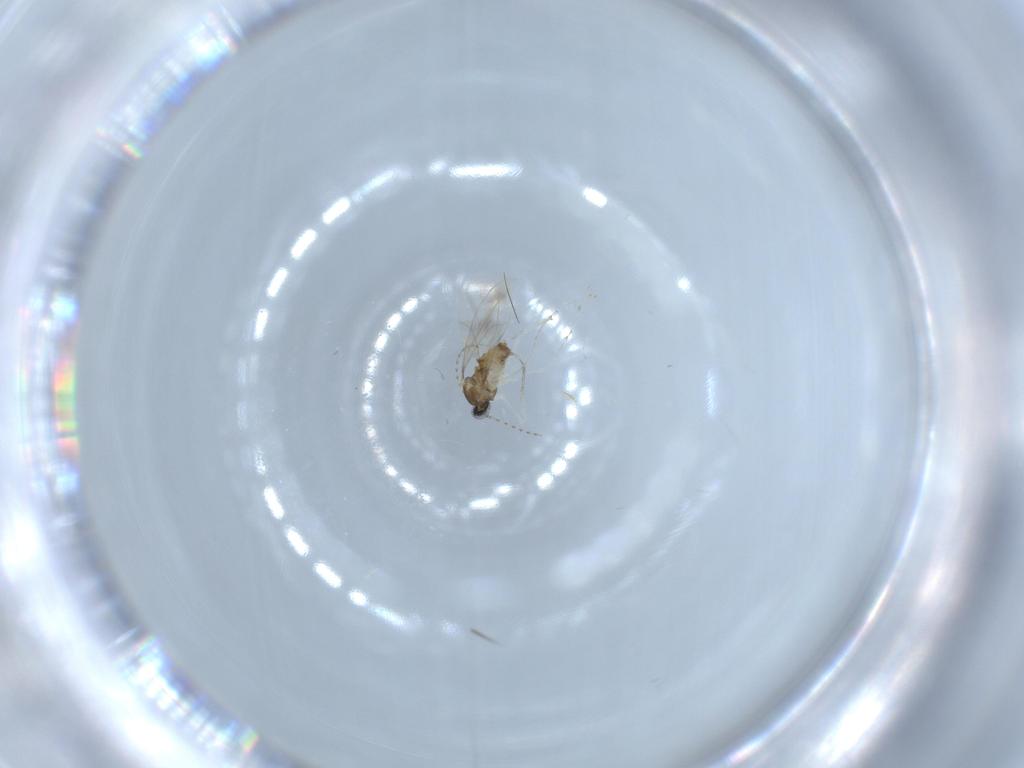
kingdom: Animalia
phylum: Arthropoda
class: Insecta
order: Diptera
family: Cecidomyiidae
